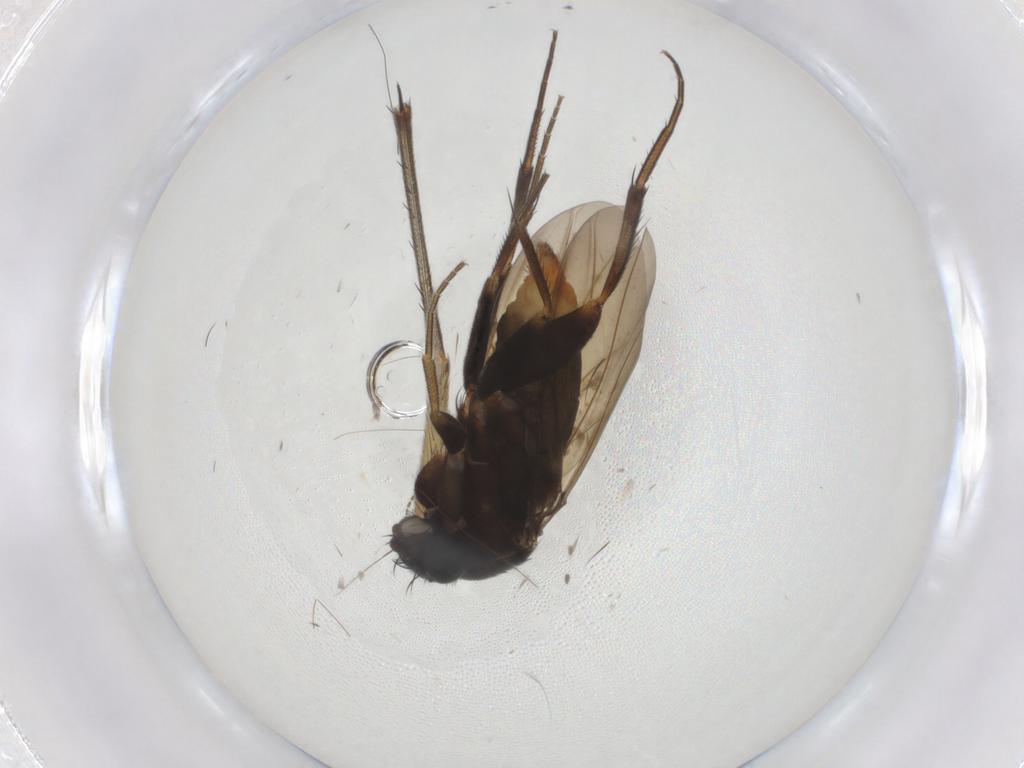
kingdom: Animalia
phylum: Arthropoda
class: Insecta
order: Diptera
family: Phoridae
